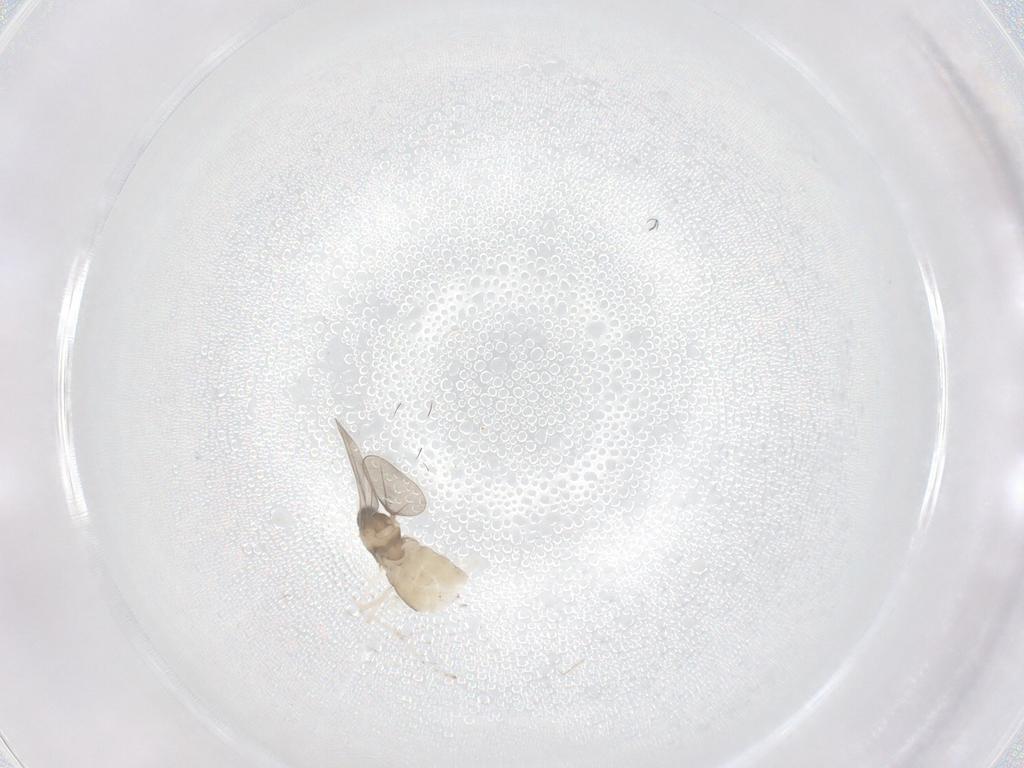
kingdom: Animalia
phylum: Arthropoda
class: Insecta
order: Diptera
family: Cecidomyiidae
